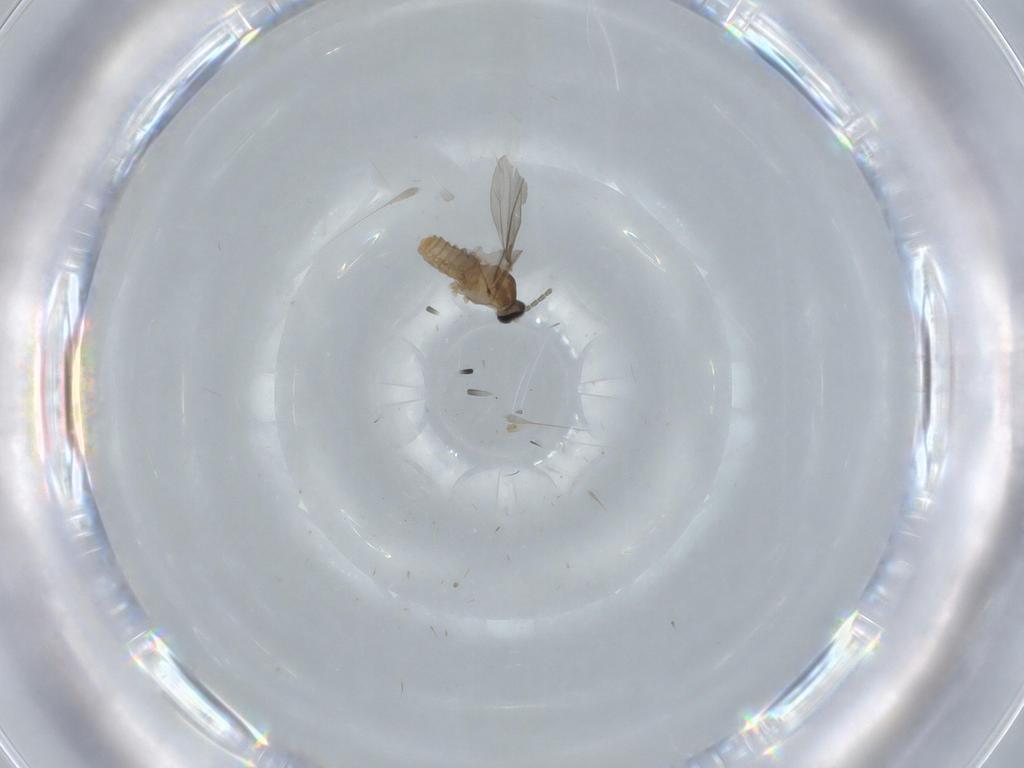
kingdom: Animalia
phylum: Arthropoda
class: Insecta
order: Diptera
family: Cecidomyiidae
